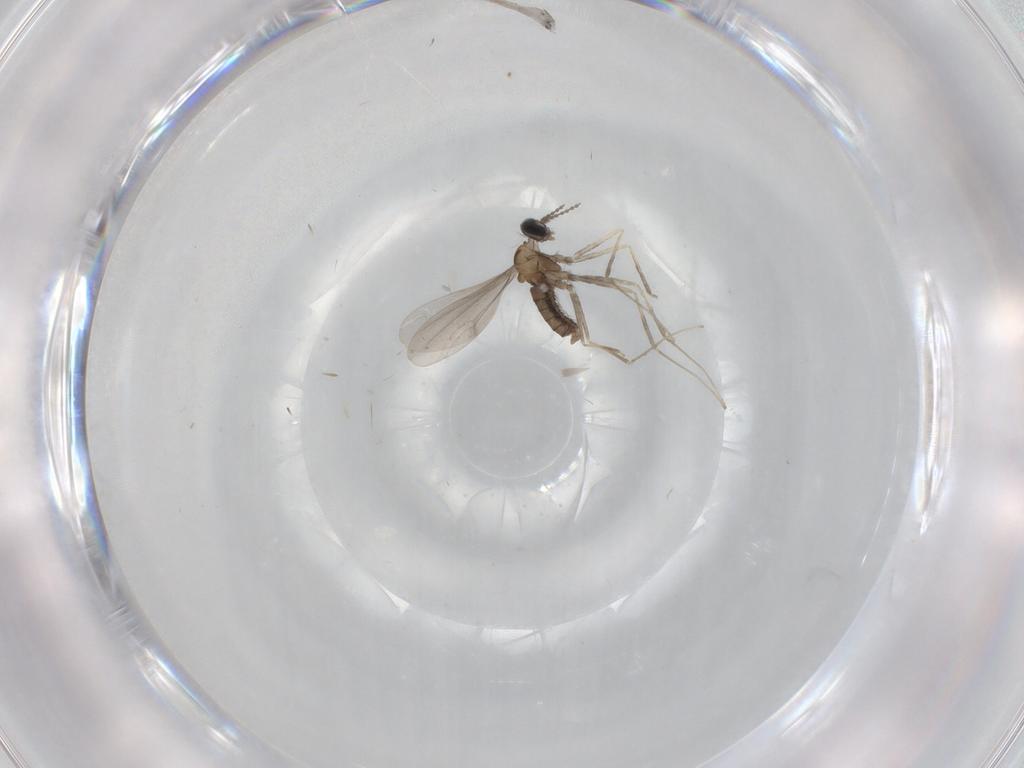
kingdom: Animalia
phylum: Arthropoda
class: Insecta
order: Diptera
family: Cecidomyiidae
